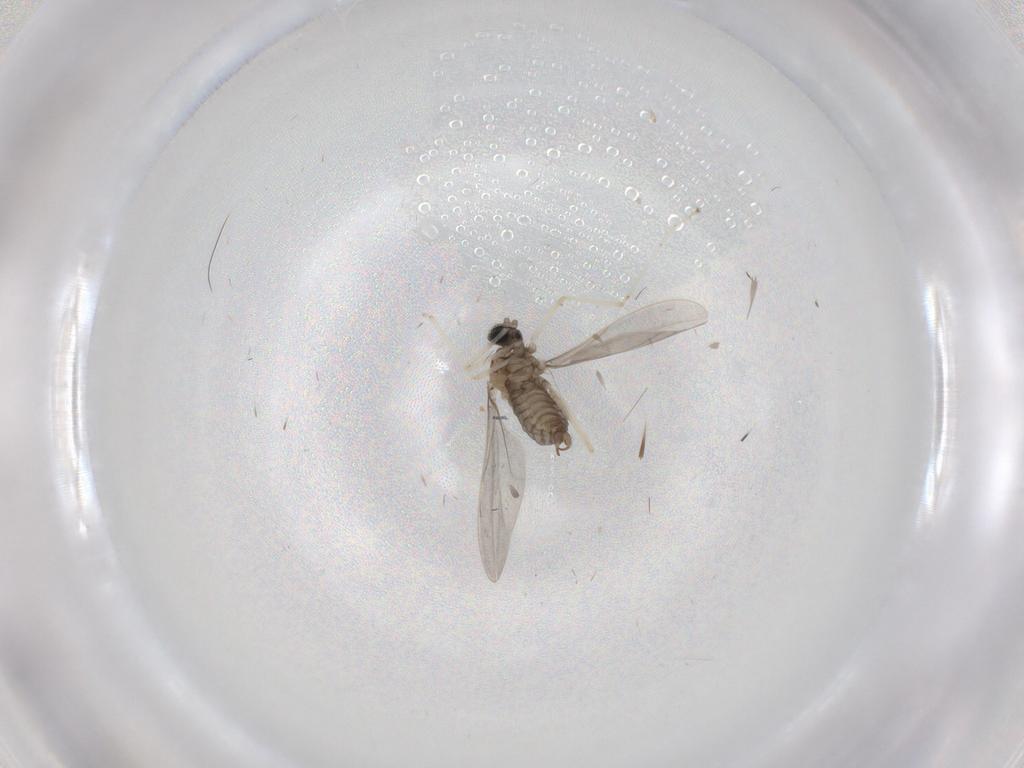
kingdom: Animalia
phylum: Arthropoda
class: Insecta
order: Diptera
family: Cecidomyiidae
